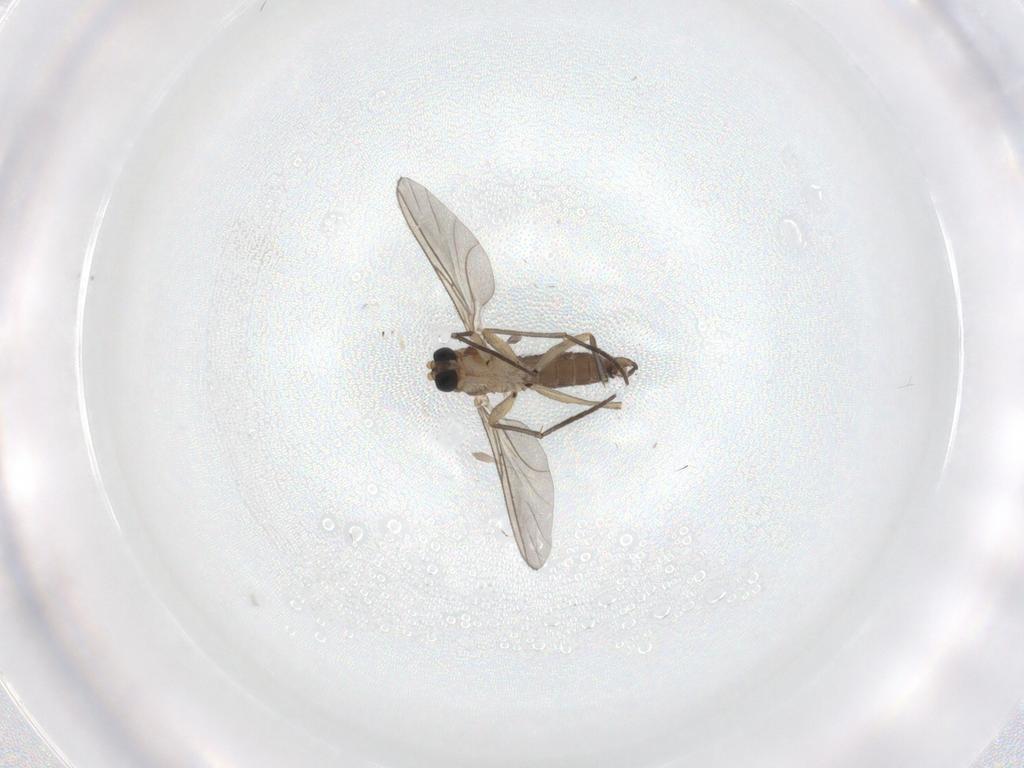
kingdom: Animalia
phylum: Arthropoda
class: Insecta
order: Diptera
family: Sciaridae
